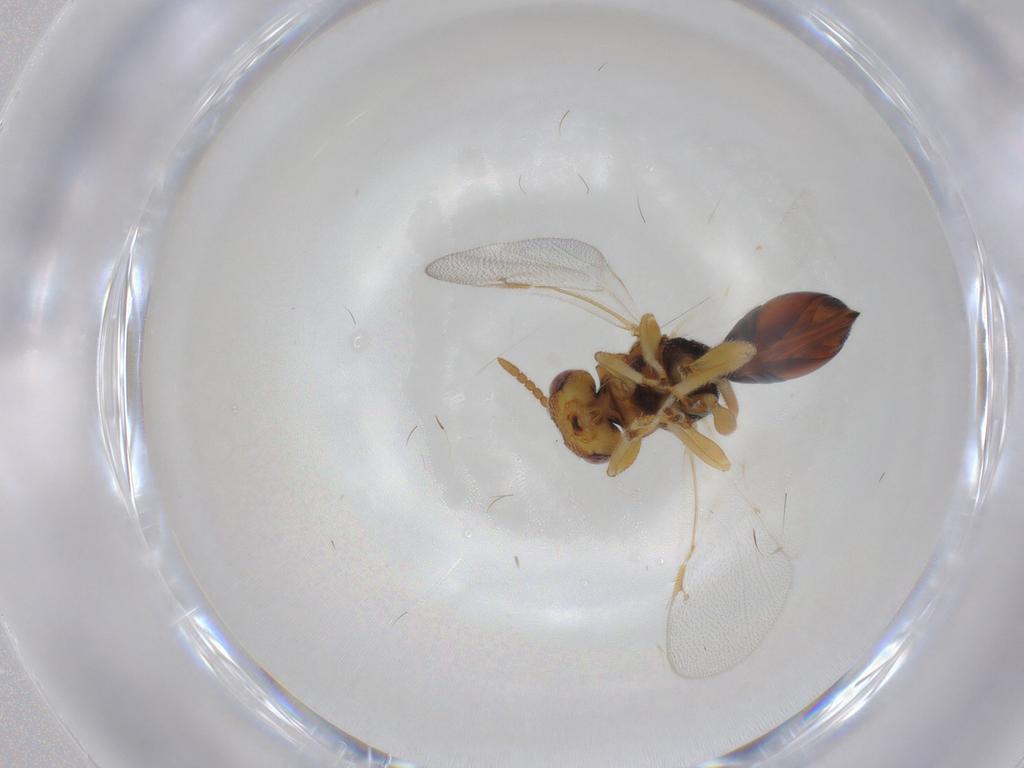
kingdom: Animalia
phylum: Arthropoda
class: Insecta
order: Hymenoptera
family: Eurytomidae
